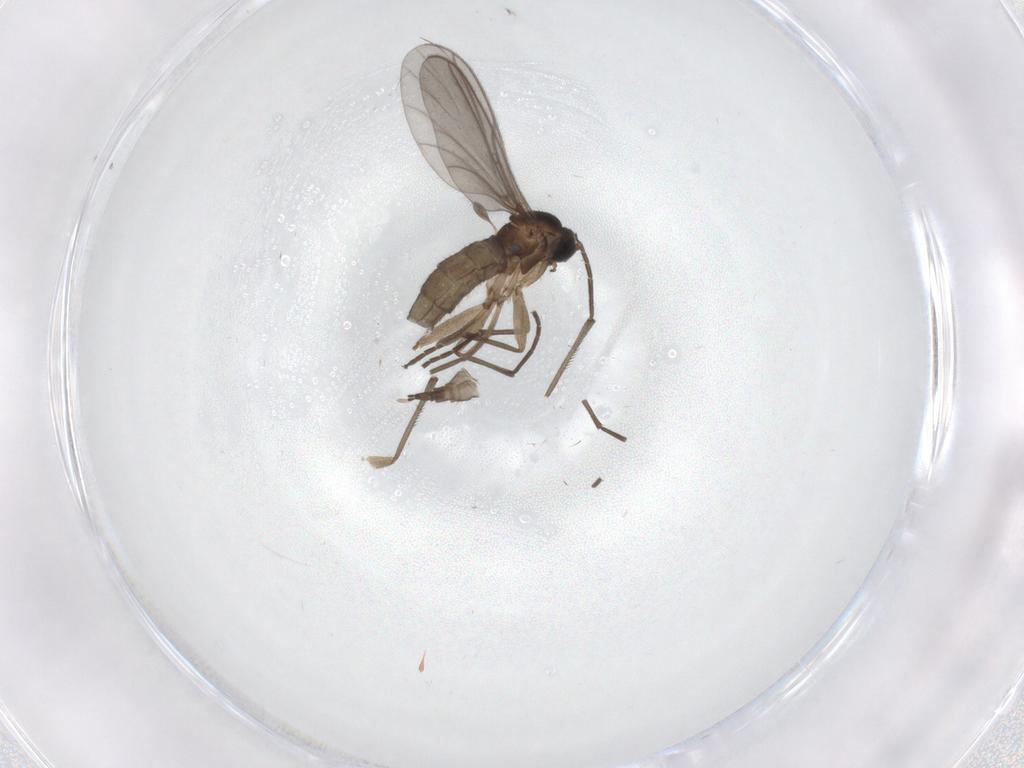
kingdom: Animalia
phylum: Arthropoda
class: Insecta
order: Diptera
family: Sciaridae
